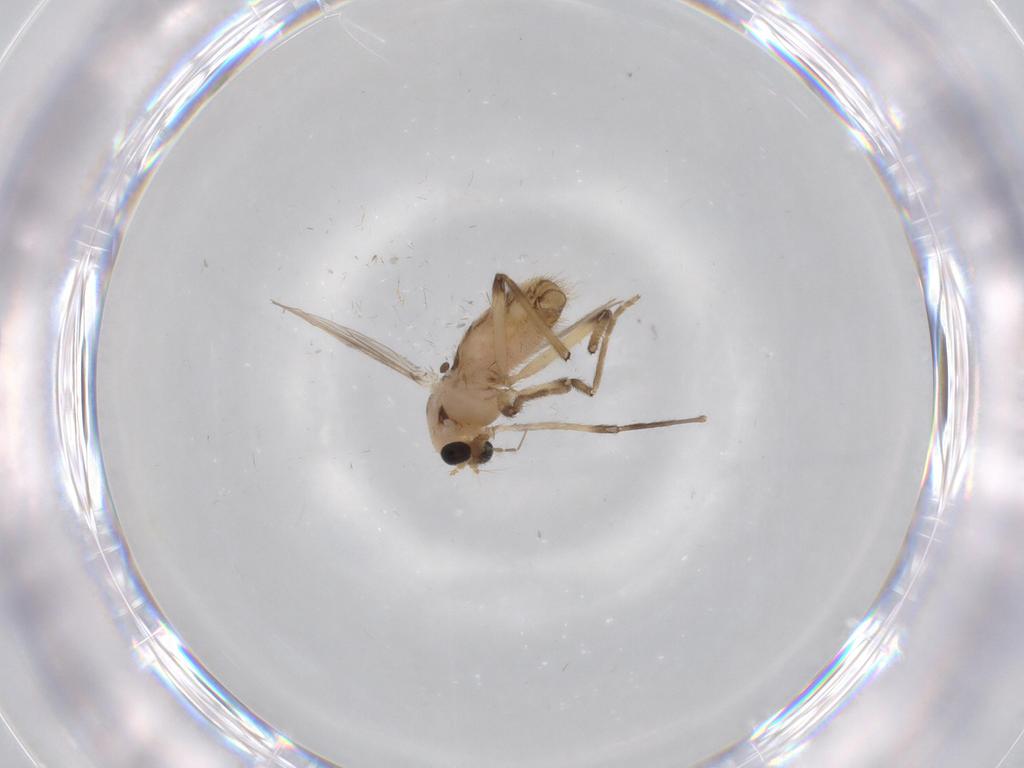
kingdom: Animalia
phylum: Arthropoda
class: Insecta
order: Diptera
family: Chironomidae
